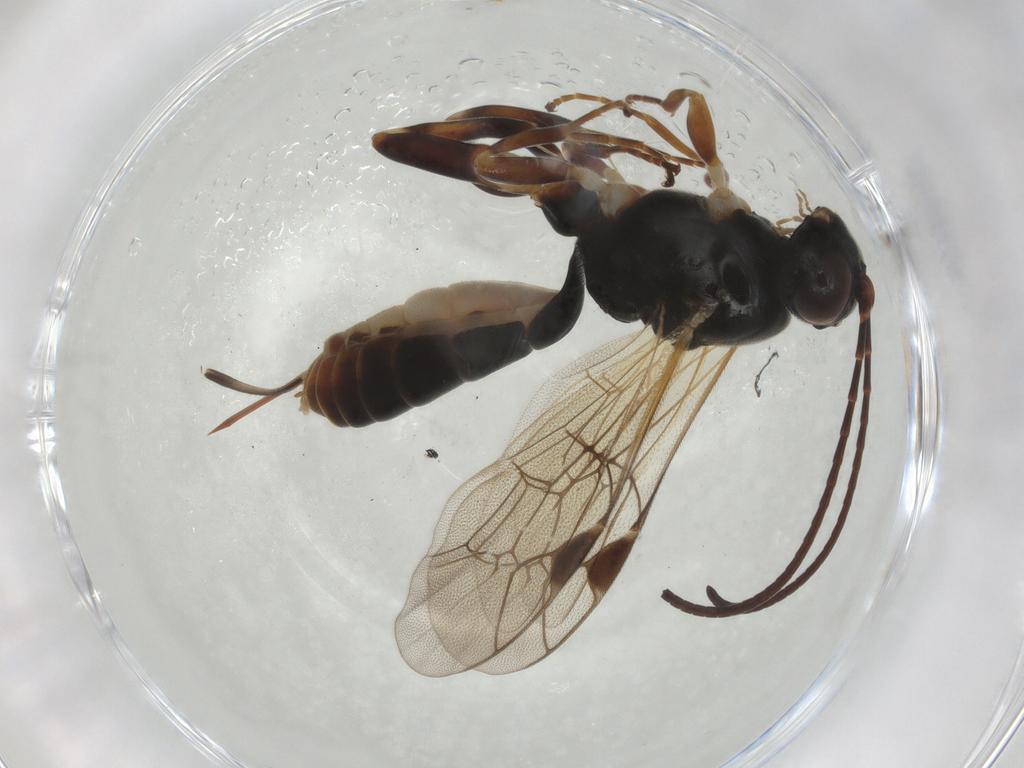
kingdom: Animalia
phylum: Arthropoda
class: Insecta
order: Hymenoptera
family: Ichneumonidae
